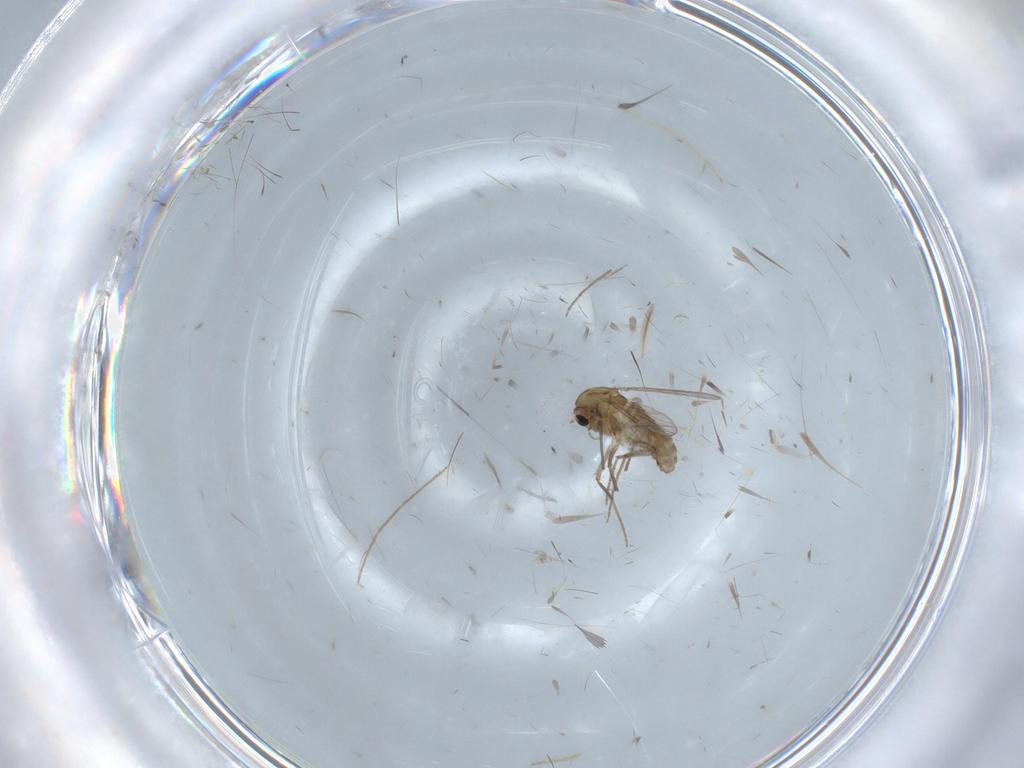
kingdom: Animalia
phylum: Arthropoda
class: Insecta
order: Diptera
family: Chironomidae
